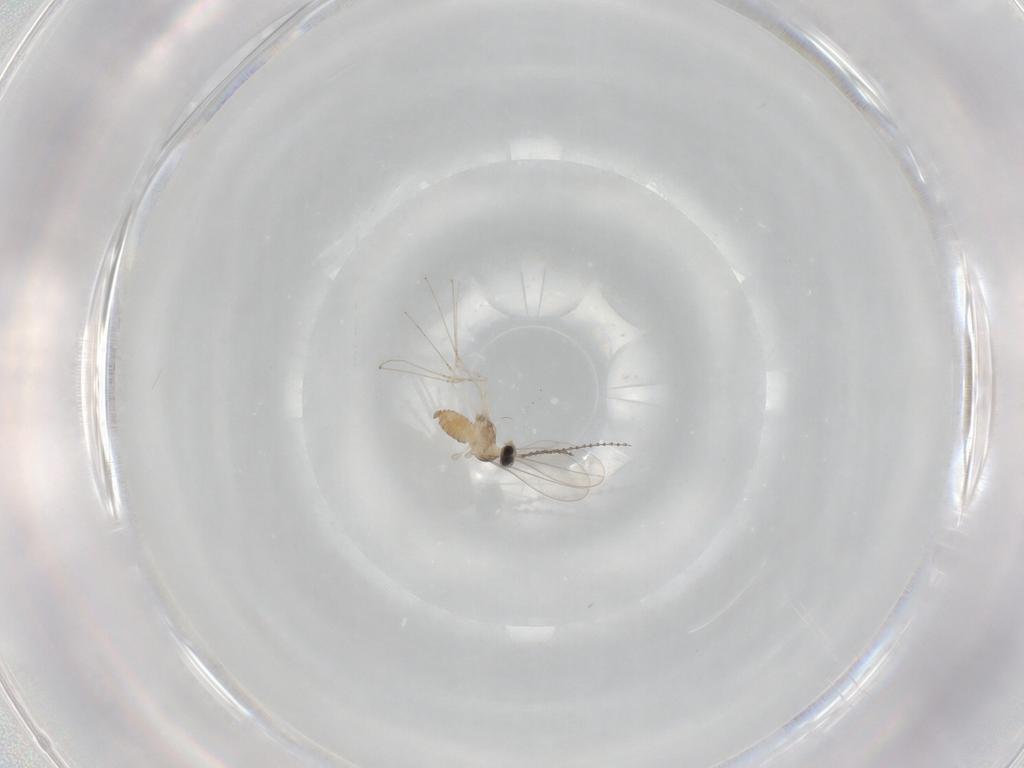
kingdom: Animalia
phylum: Arthropoda
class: Insecta
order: Diptera
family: Cecidomyiidae
